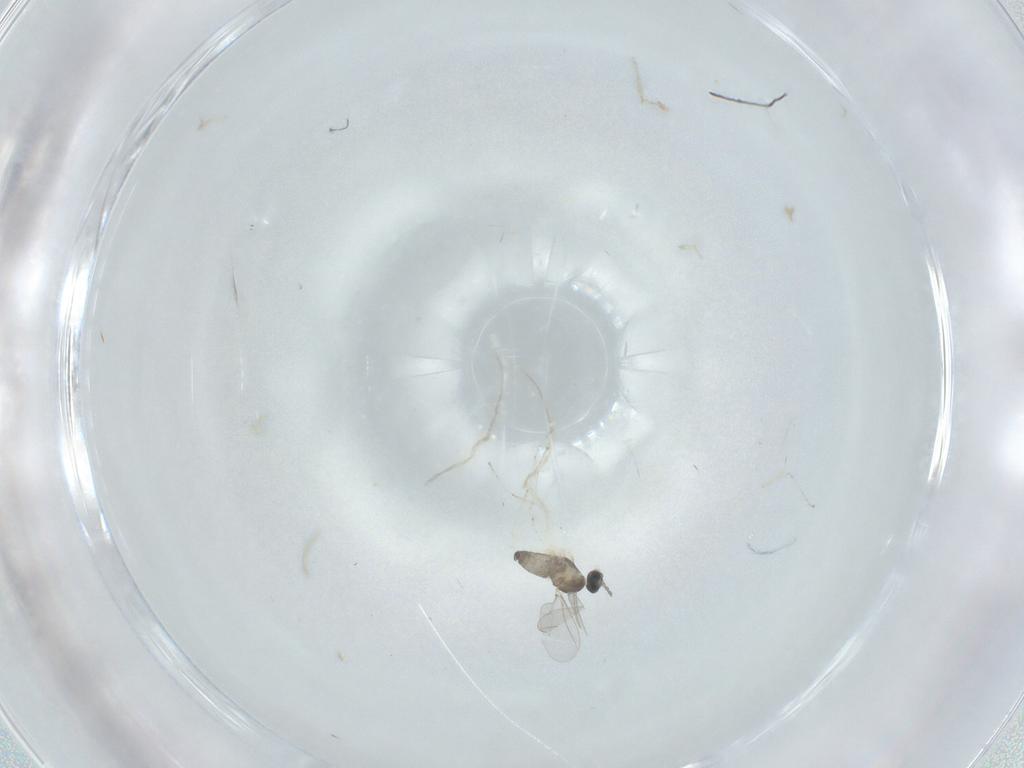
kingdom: Animalia
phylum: Arthropoda
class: Insecta
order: Diptera
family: Cecidomyiidae
